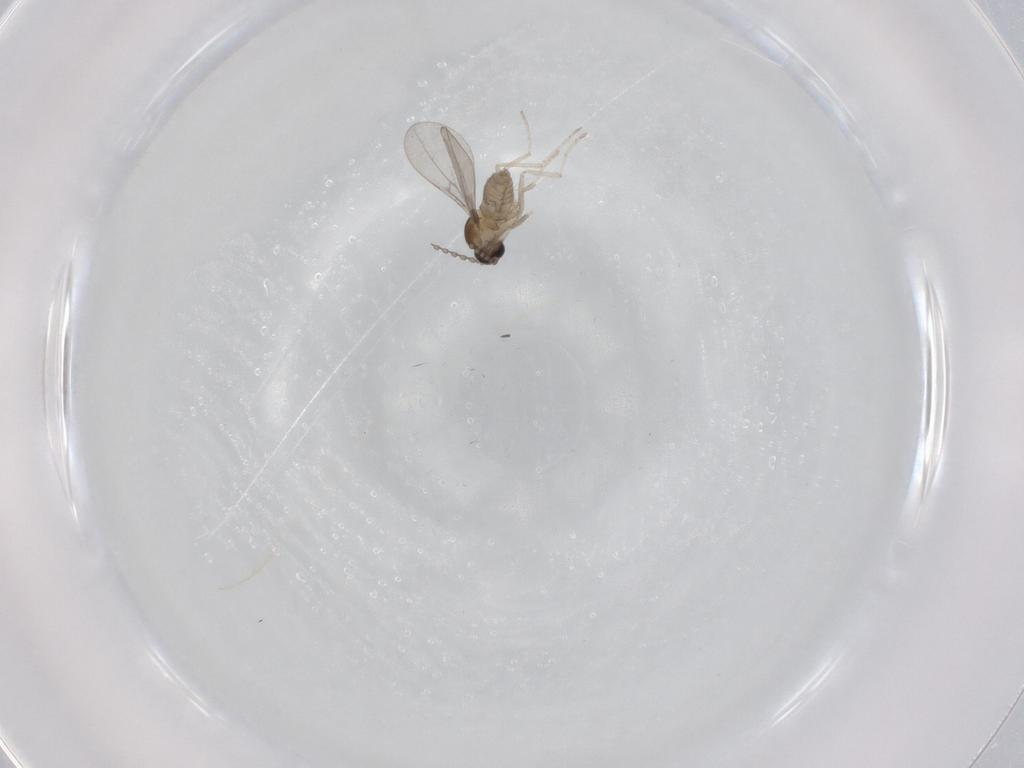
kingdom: Animalia
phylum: Arthropoda
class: Insecta
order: Diptera
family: Cecidomyiidae
